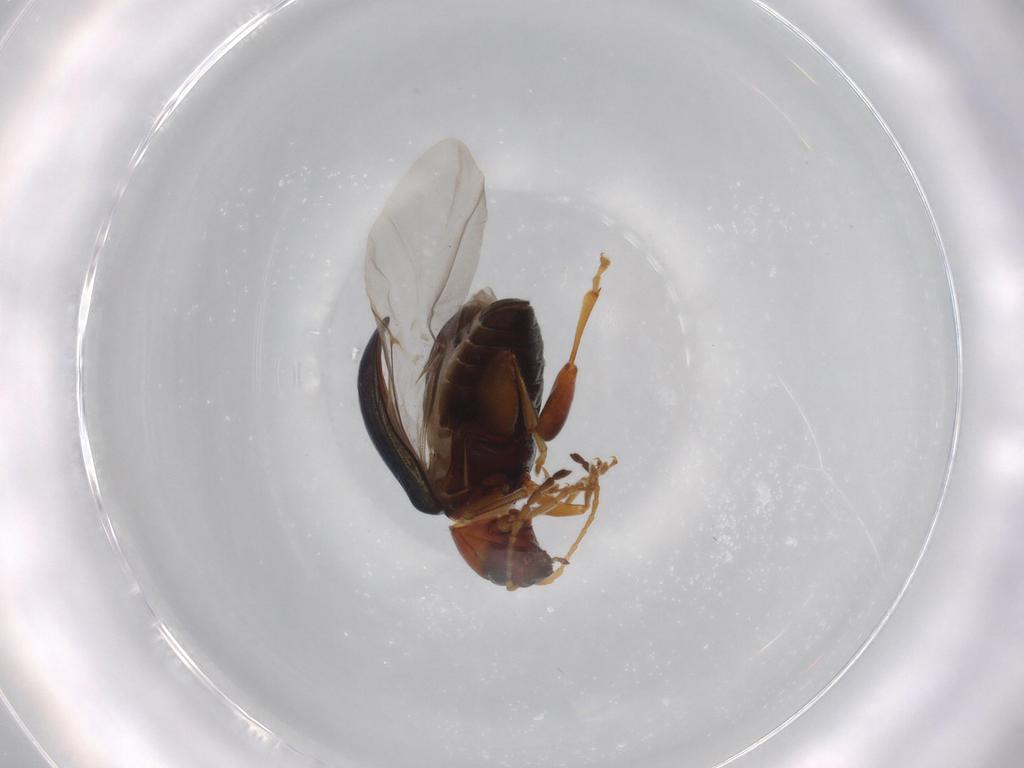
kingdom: Animalia
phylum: Arthropoda
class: Insecta
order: Coleoptera
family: Chrysomelidae
